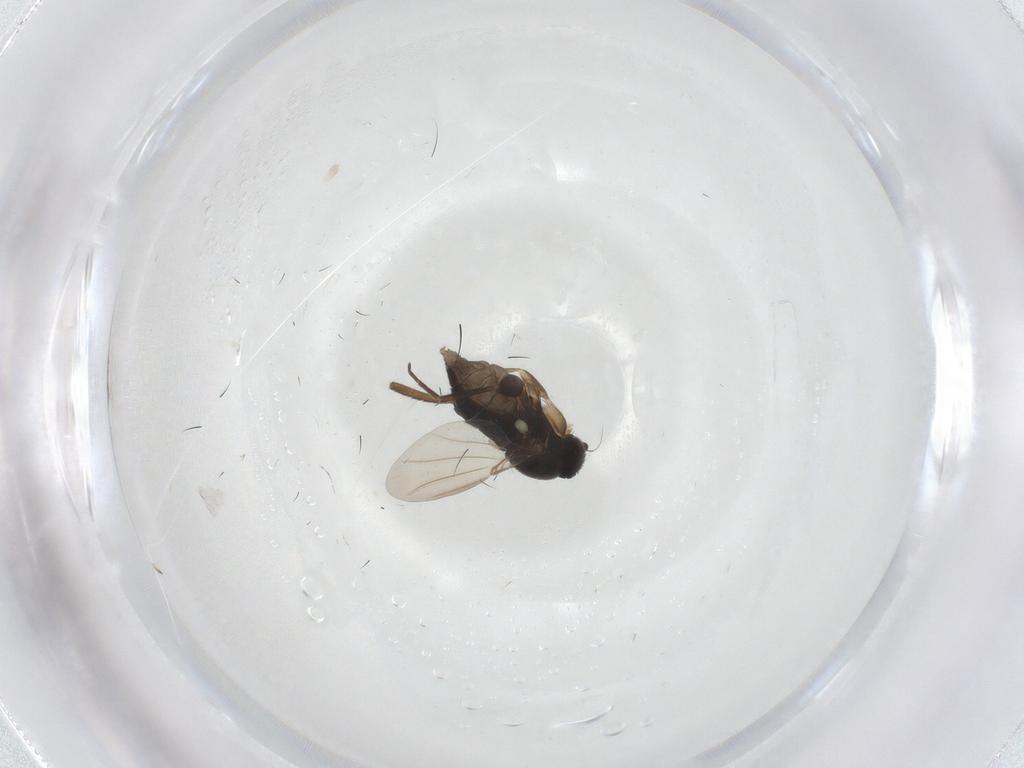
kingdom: Animalia
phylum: Arthropoda
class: Insecta
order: Diptera
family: Phoridae
